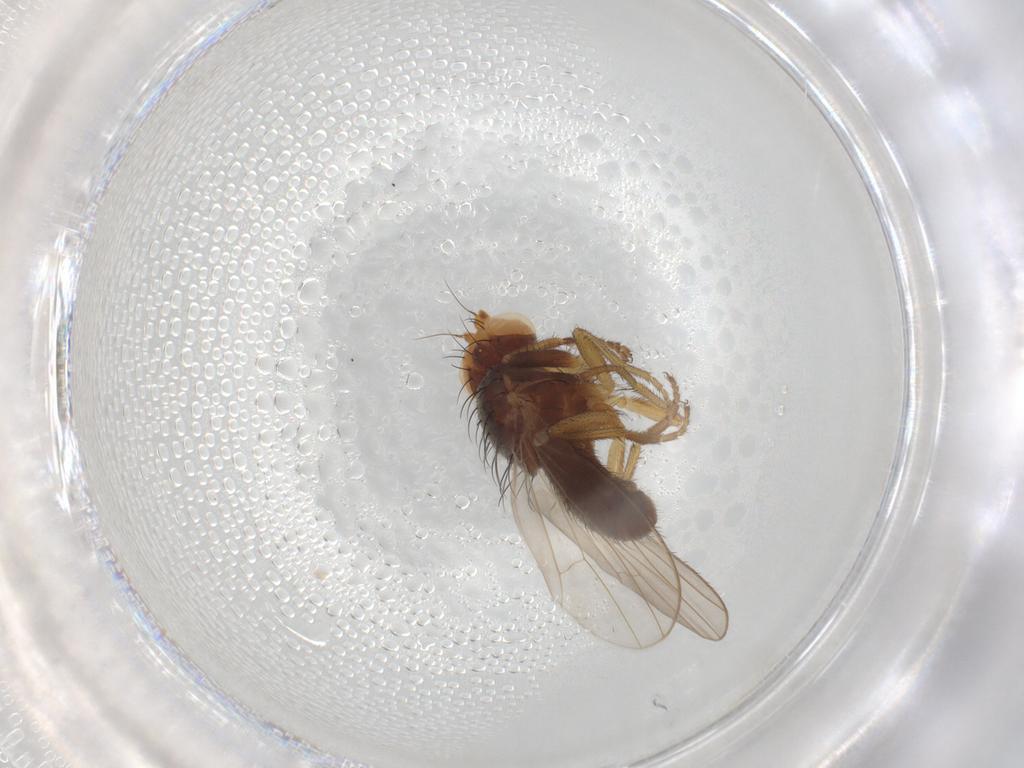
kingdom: Animalia
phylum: Arthropoda
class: Insecta
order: Diptera
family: Heleomyzidae
